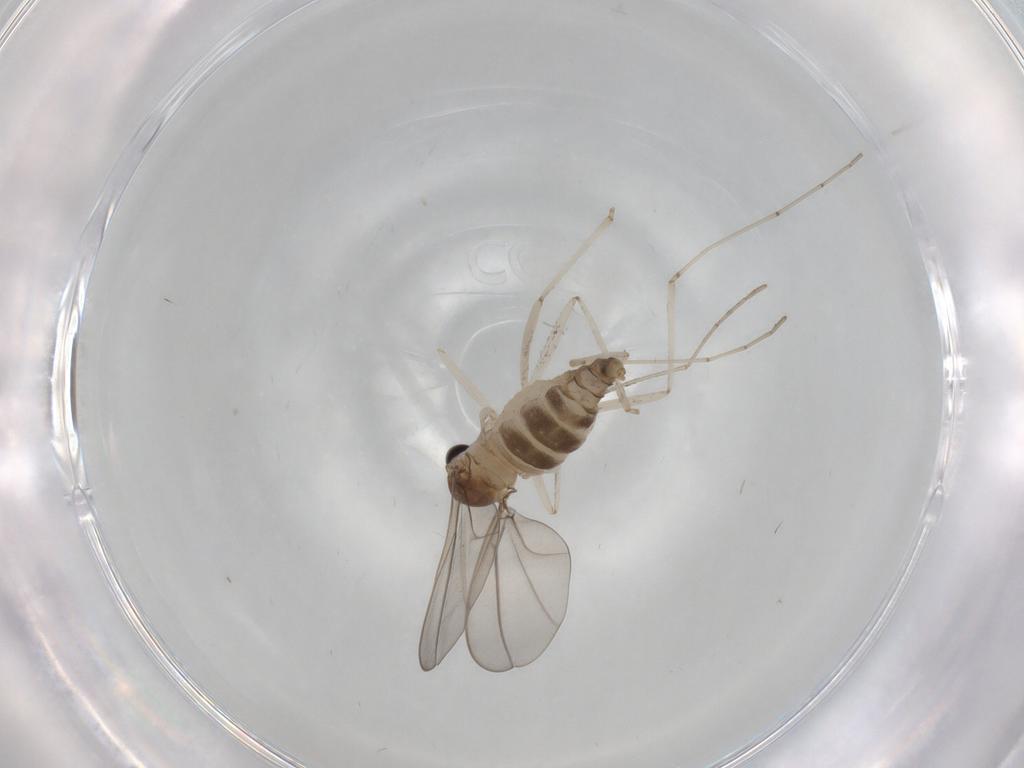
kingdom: Animalia
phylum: Arthropoda
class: Insecta
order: Diptera
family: Cecidomyiidae
